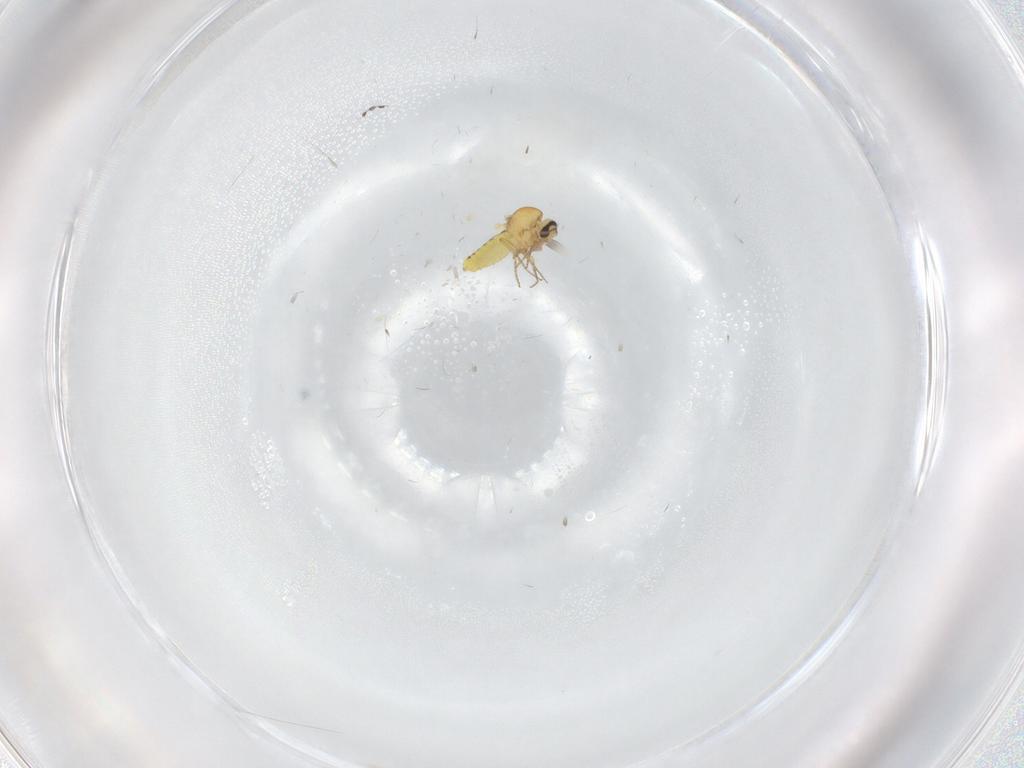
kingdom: Animalia
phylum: Arthropoda
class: Insecta
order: Diptera
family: Ceratopogonidae
